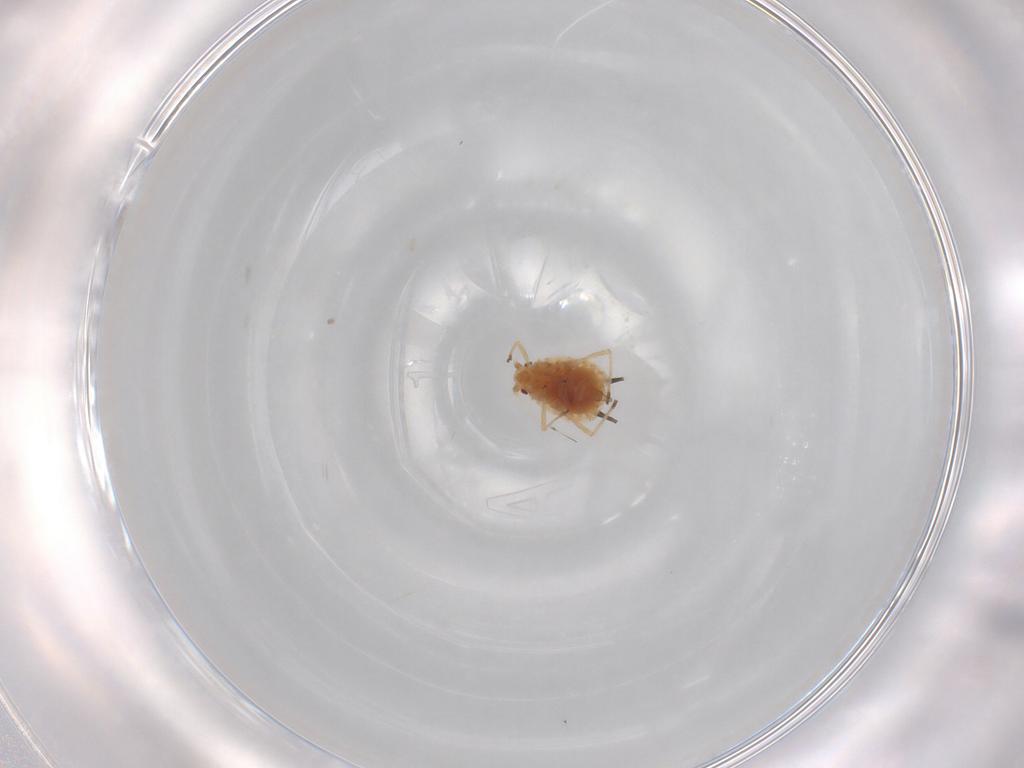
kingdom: Animalia
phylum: Arthropoda
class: Insecta
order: Hemiptera
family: Aphididae
